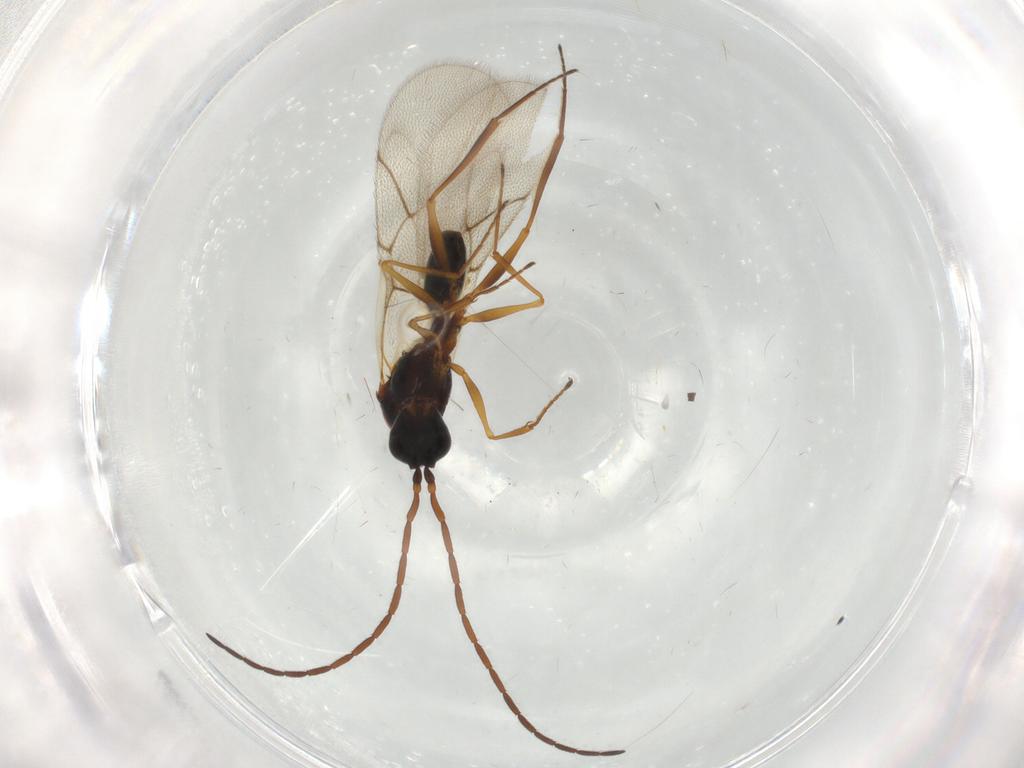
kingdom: Animalia
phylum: Arthropoda
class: Insecta
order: Hymenoptera
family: Figitidae
